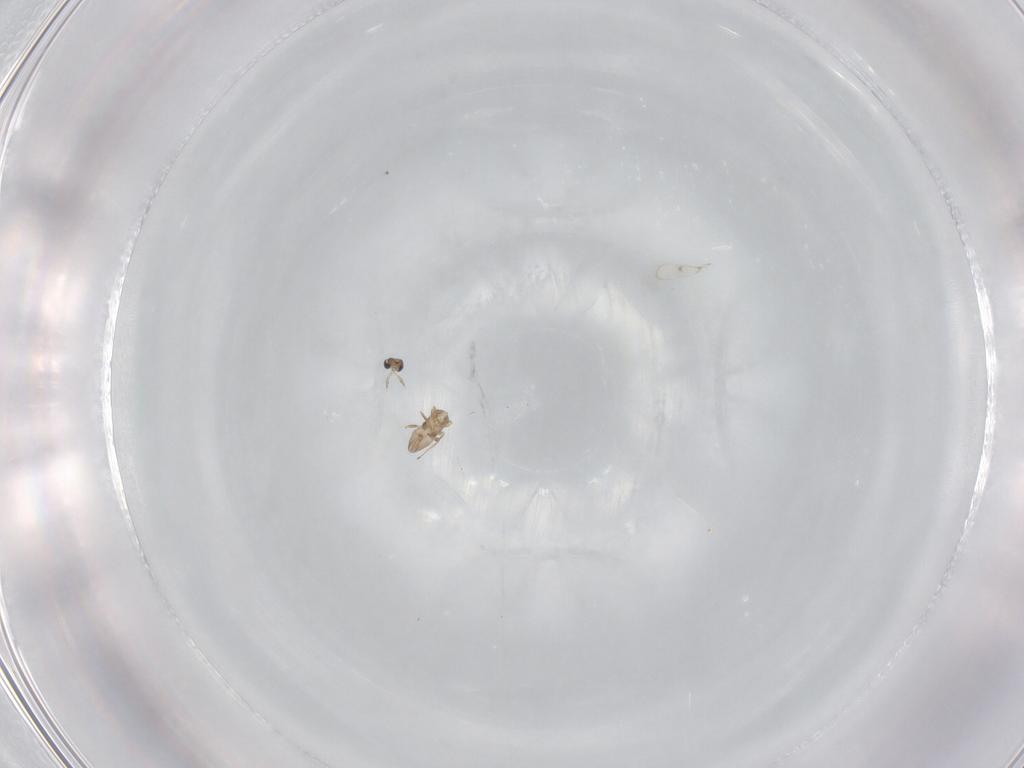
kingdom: Animalia
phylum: Arthropoda
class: Insecta
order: Hymenoptera
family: Trichogrammatidae
